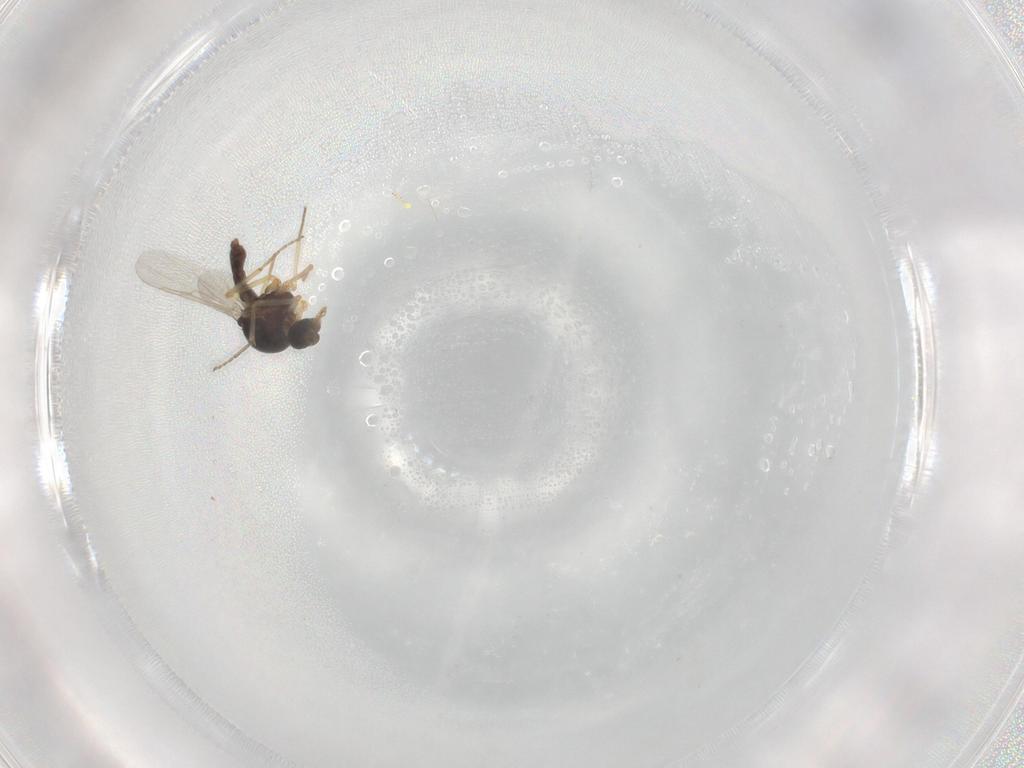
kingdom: Animalia
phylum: Arthropoda
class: Insecta
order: Diptera
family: Ceratopogonidae
